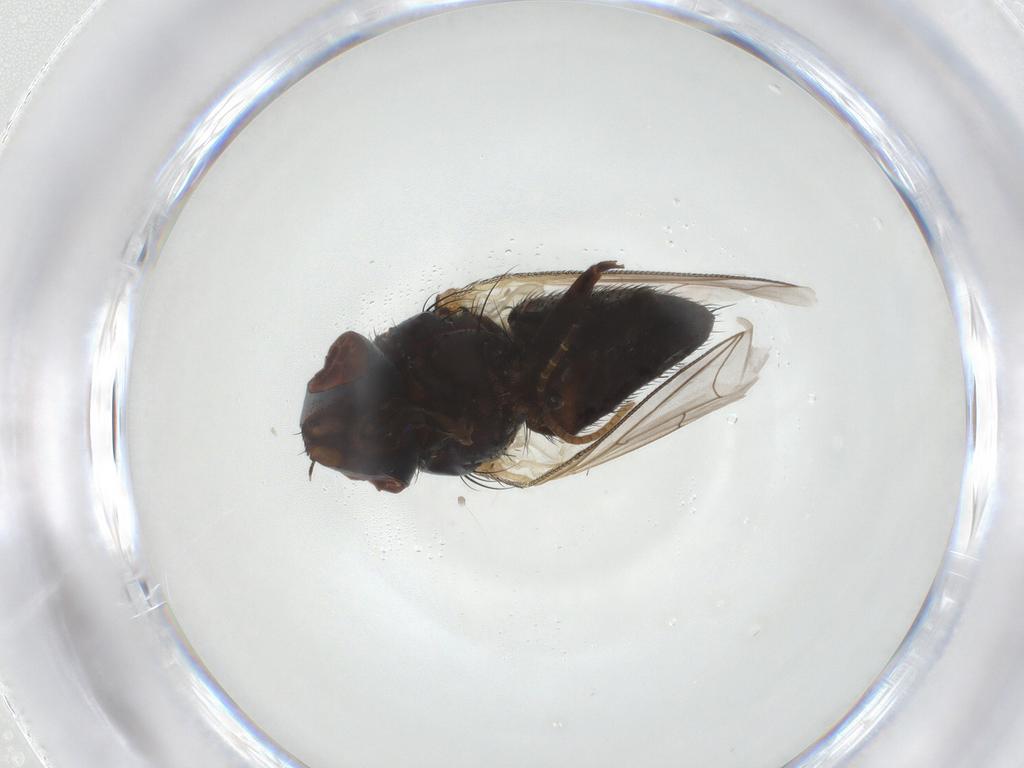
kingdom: Animalia
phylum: Arthropoda
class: Insecta
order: Diptera
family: Sarcophagidae
